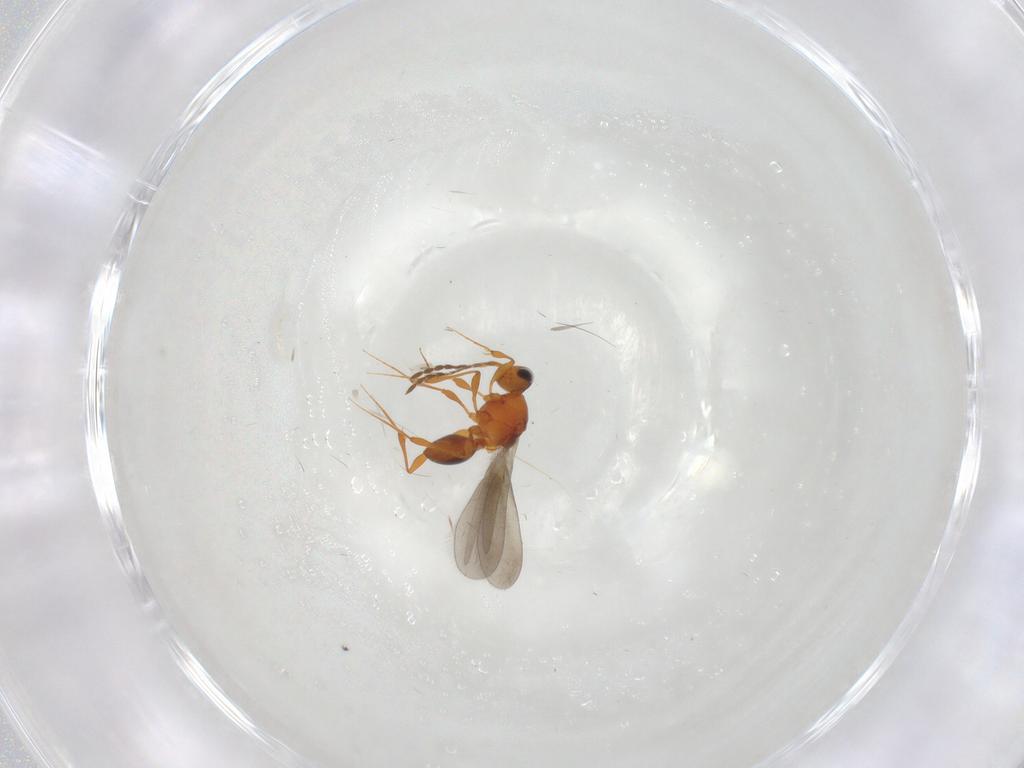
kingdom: Animalia
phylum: Arthropoda
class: Insecta
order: Hymenoptera
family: Platygastridae
